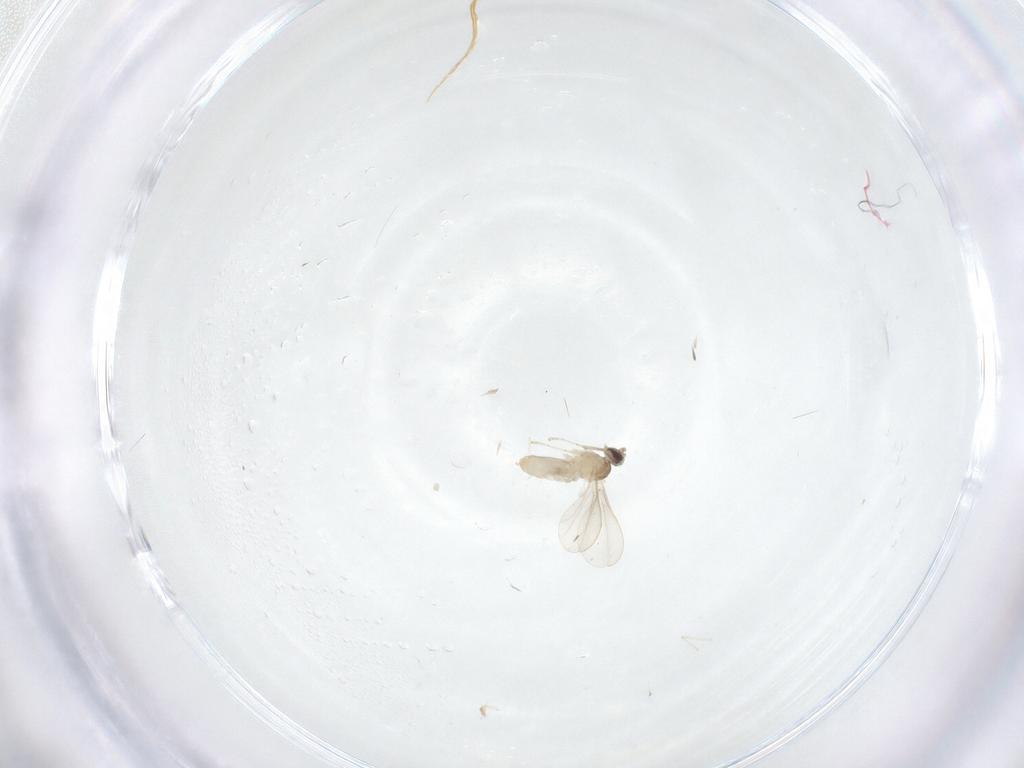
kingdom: Animalia
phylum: Arthropoda
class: Insecta
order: Diptera
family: Cecidomyiidae
